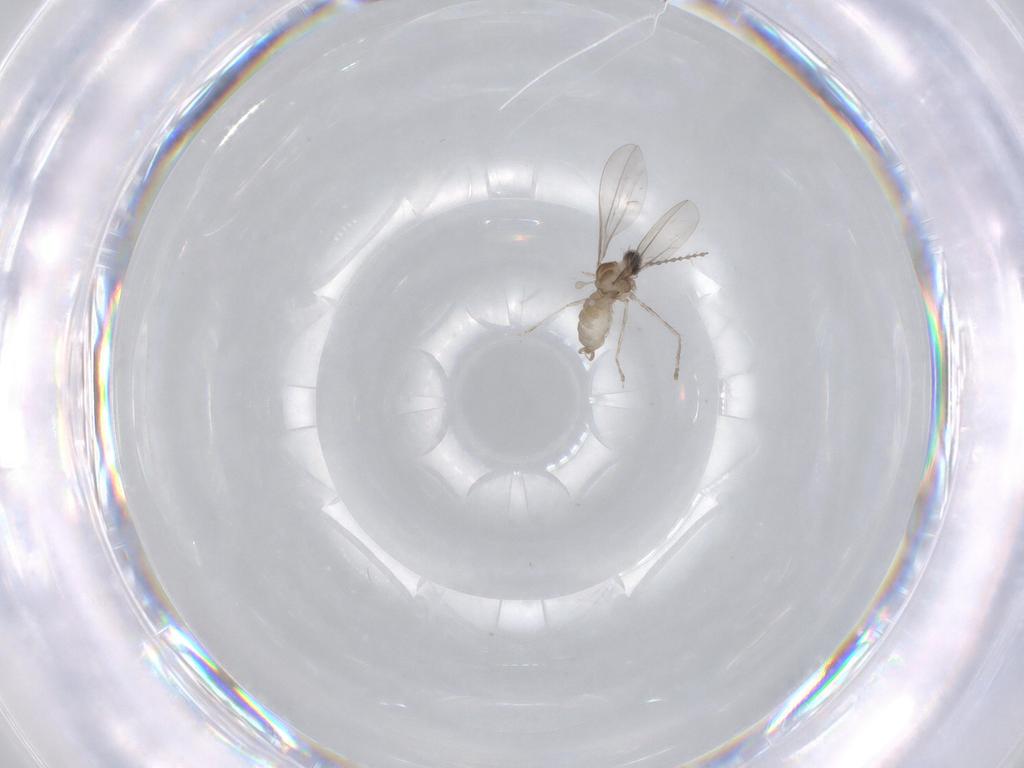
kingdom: Animalia
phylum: Arthropoda
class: Insecta
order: Diptera
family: Cecidomyiidae
